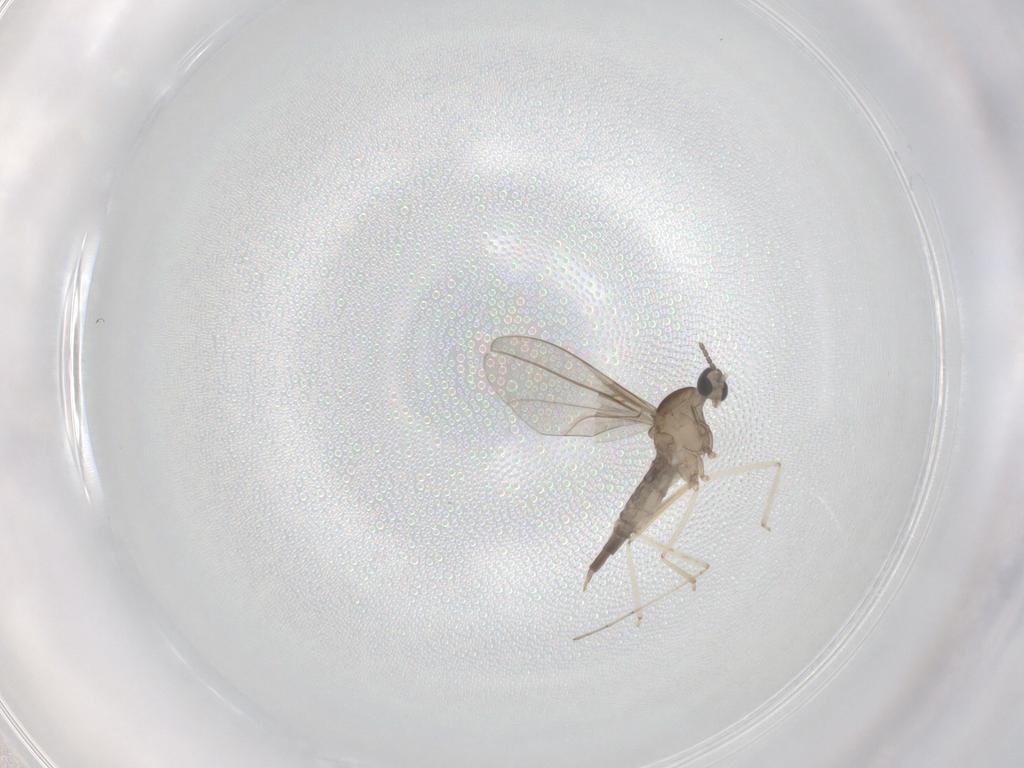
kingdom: Animalia
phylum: Arthropoda
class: Insecta
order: Diptera
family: Cecidomyiidae
